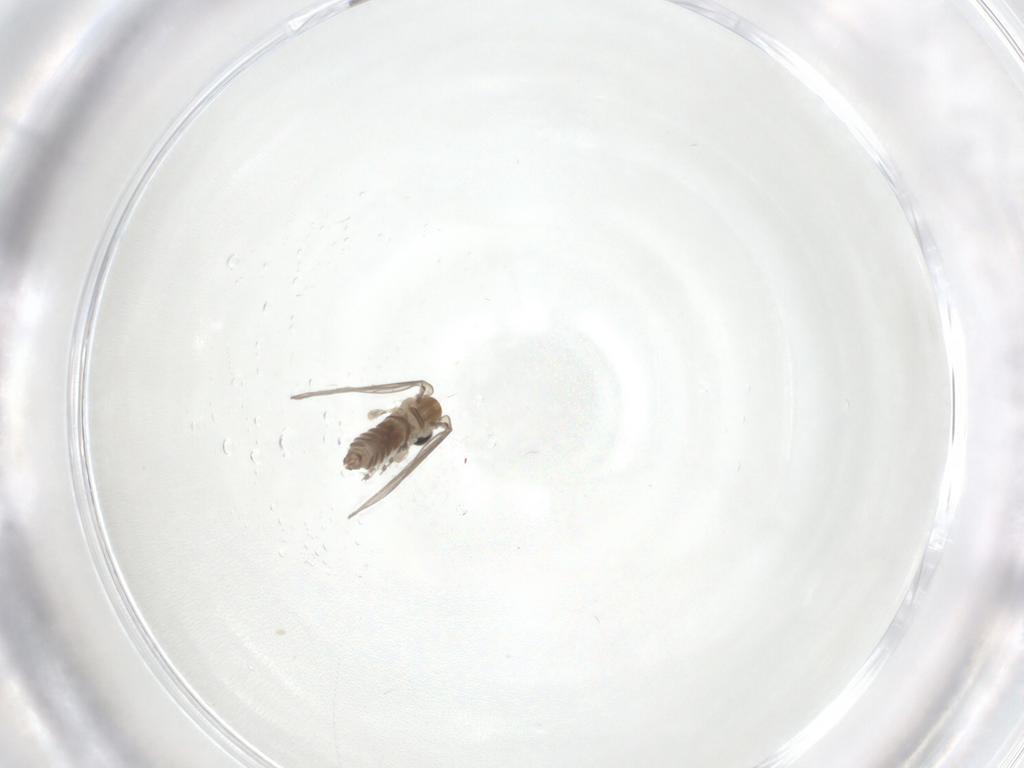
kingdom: Animalia
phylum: Arthropoda
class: Insecta
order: Diptera
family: Psychodidae
